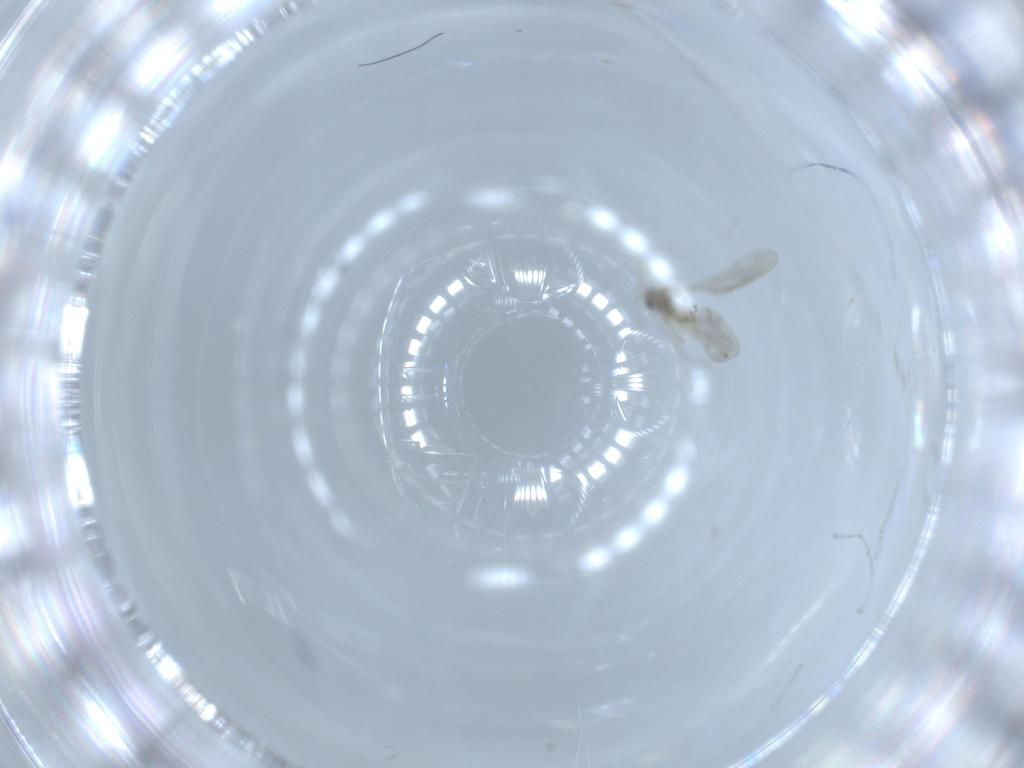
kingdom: Animalia
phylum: Arthropoda
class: Insecta
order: Diptera
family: Cecidomyiidae
